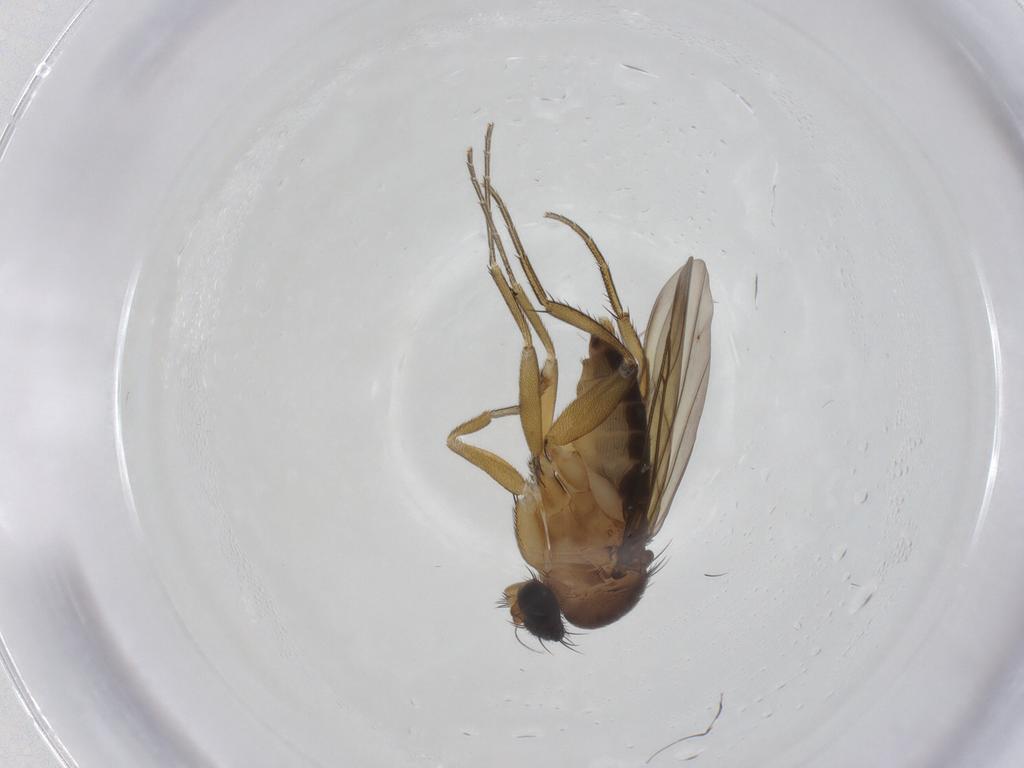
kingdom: Animalia
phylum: Arthropoda
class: Insecta
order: Diptera
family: Phoridae
